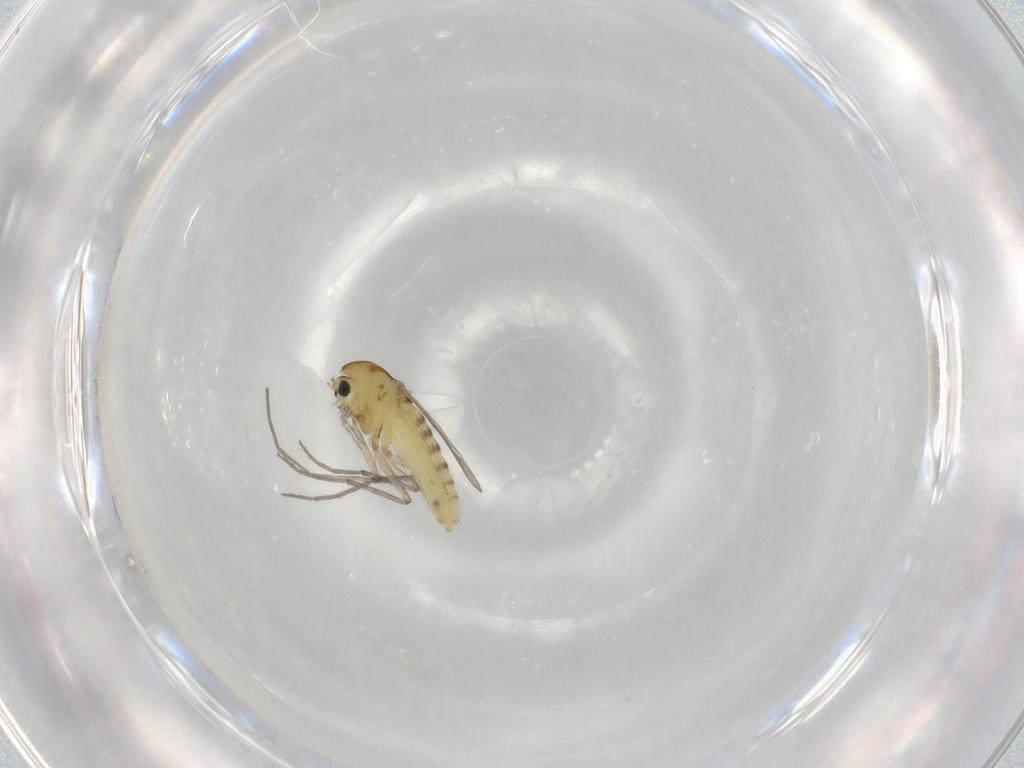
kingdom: Animalia
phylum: Arthropoda
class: Insecta
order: Diptera
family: Chironomidae
